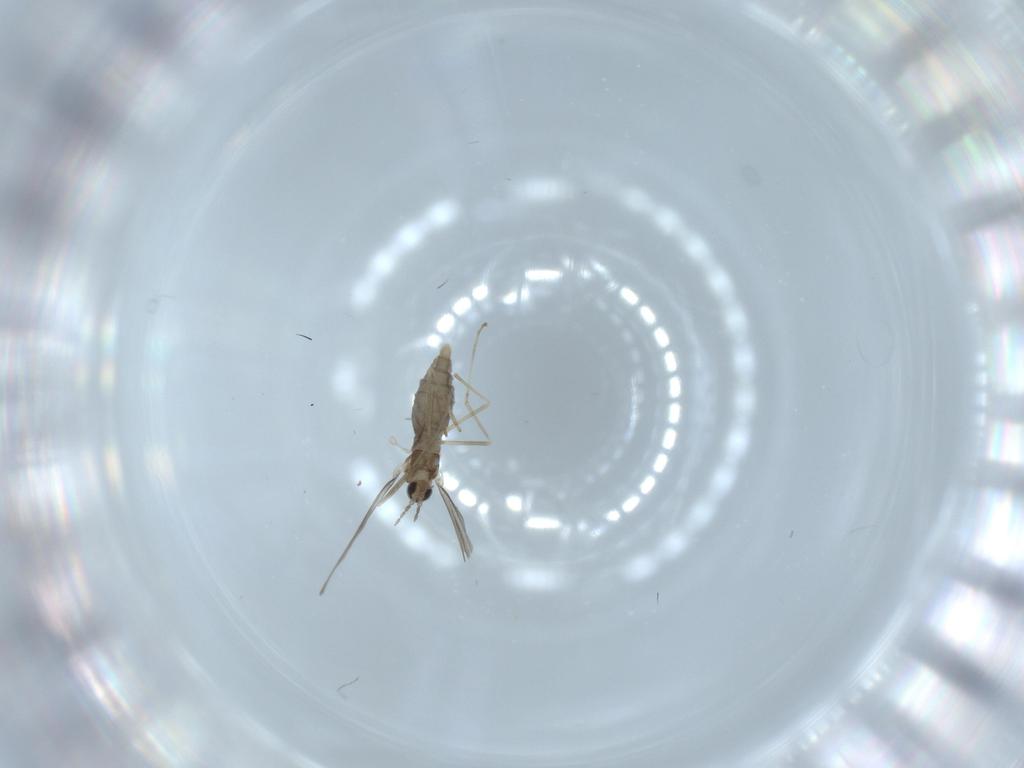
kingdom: Animalia
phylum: Arthropoda
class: Insecta
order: Diptera
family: Cecidomyiidae
